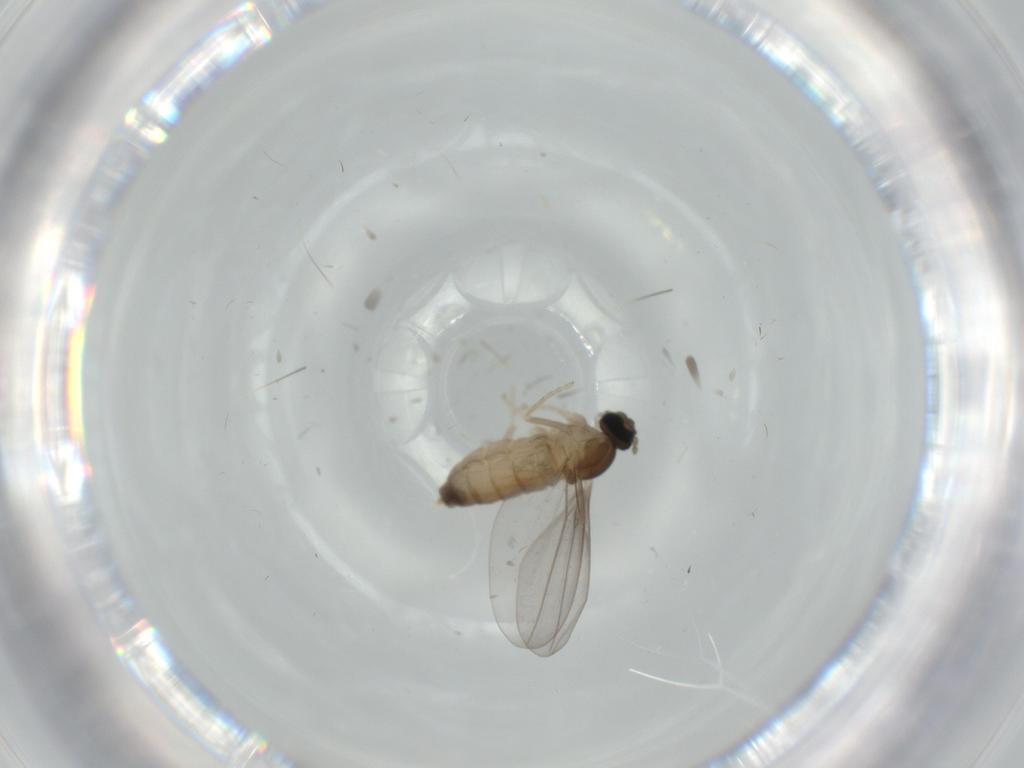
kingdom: Animalia
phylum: Arthropoda
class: Insecta
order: Diptera
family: Cecidomyiidae
